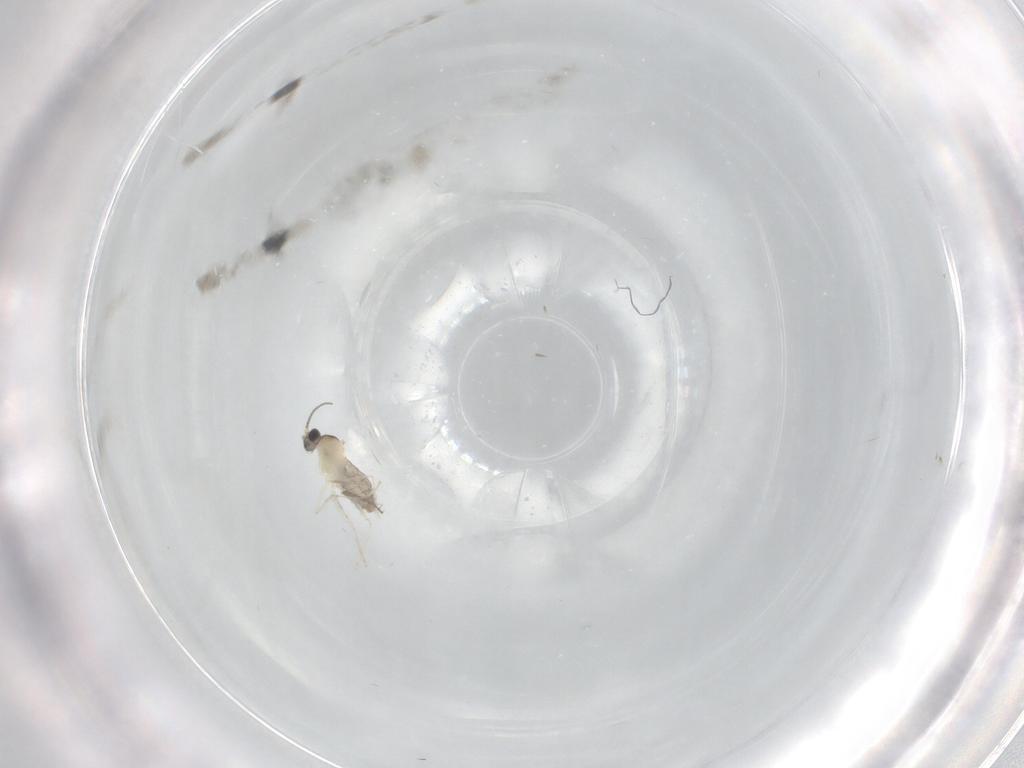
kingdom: Animalia
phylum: Arthropoda
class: Insecta
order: Diptera
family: Cecidomyiidae
